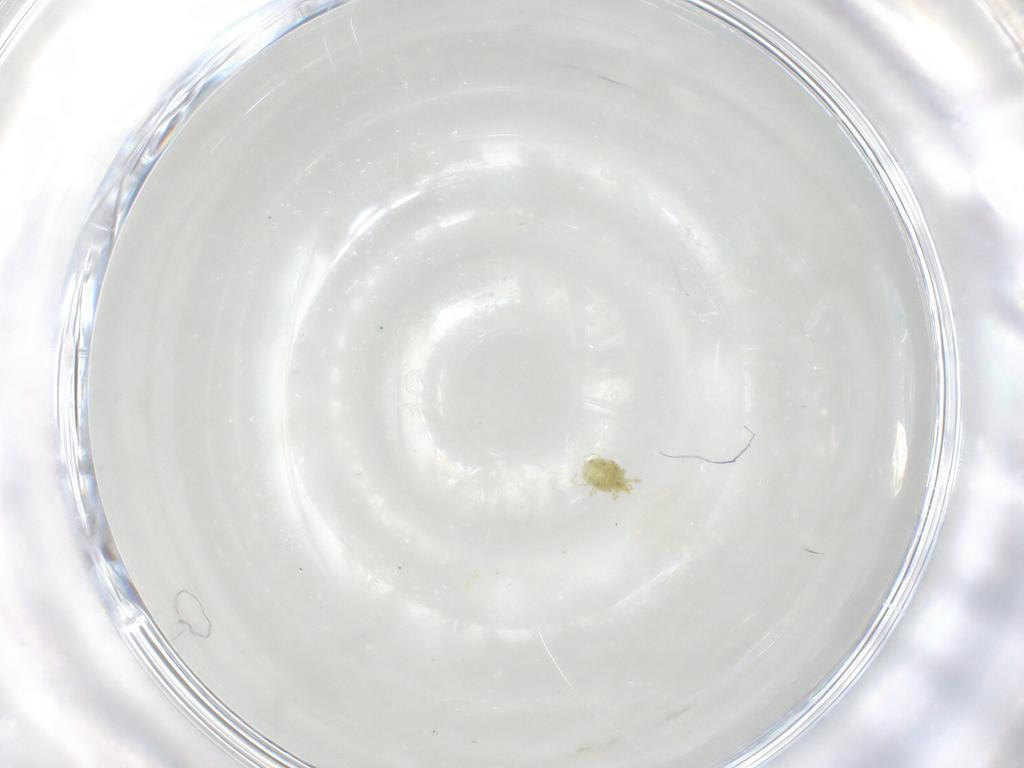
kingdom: Animalia
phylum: Arthropoda
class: Arachnida
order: Trombidiformes
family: Erythraeidae
